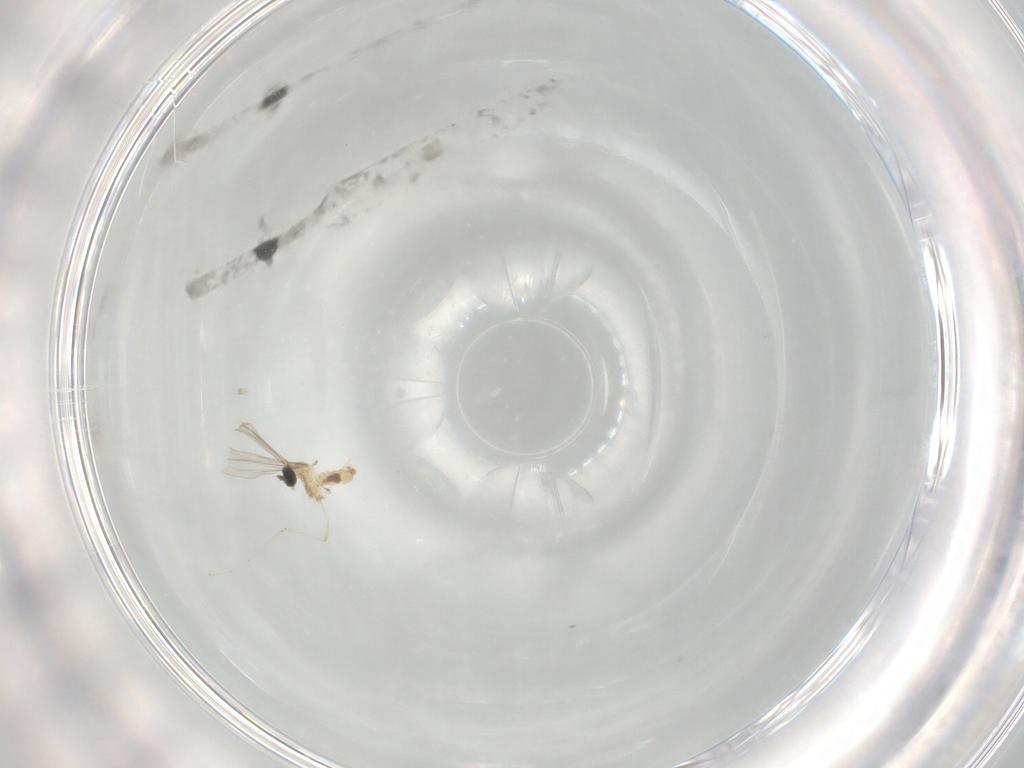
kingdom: Animalia
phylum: Arthropoda
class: Insecta
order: Diptera
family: Cecidomyiidae
